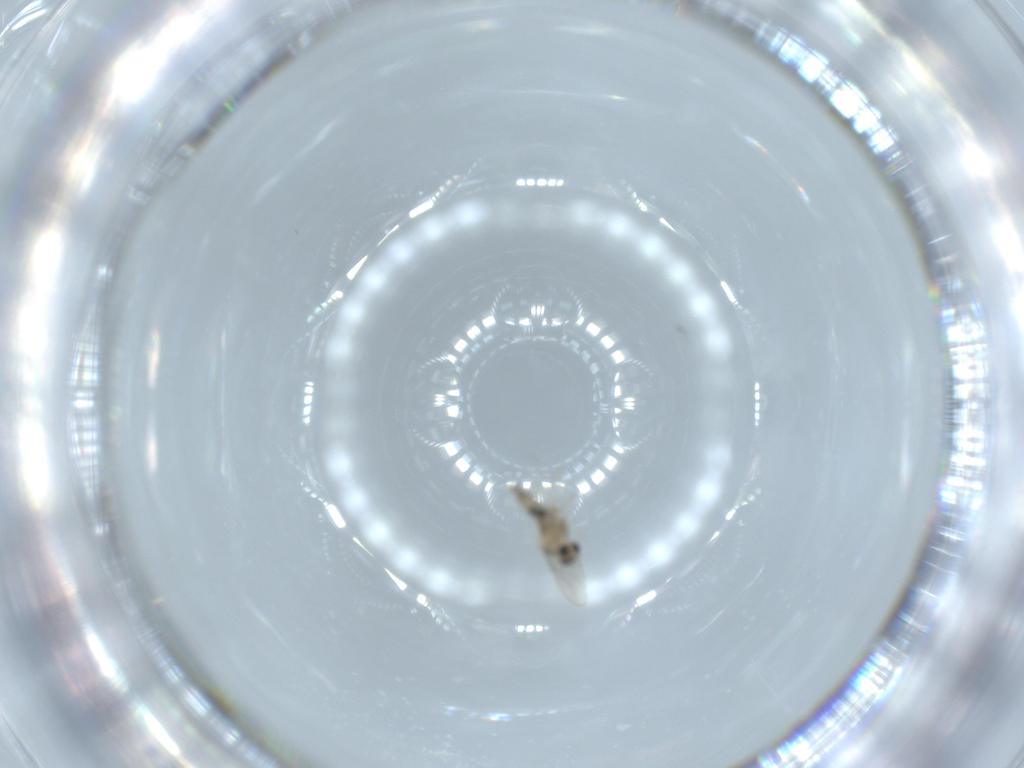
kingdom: Animalia
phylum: Arthropoda
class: Insecta
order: Diptera
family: Cecidomyiidae
